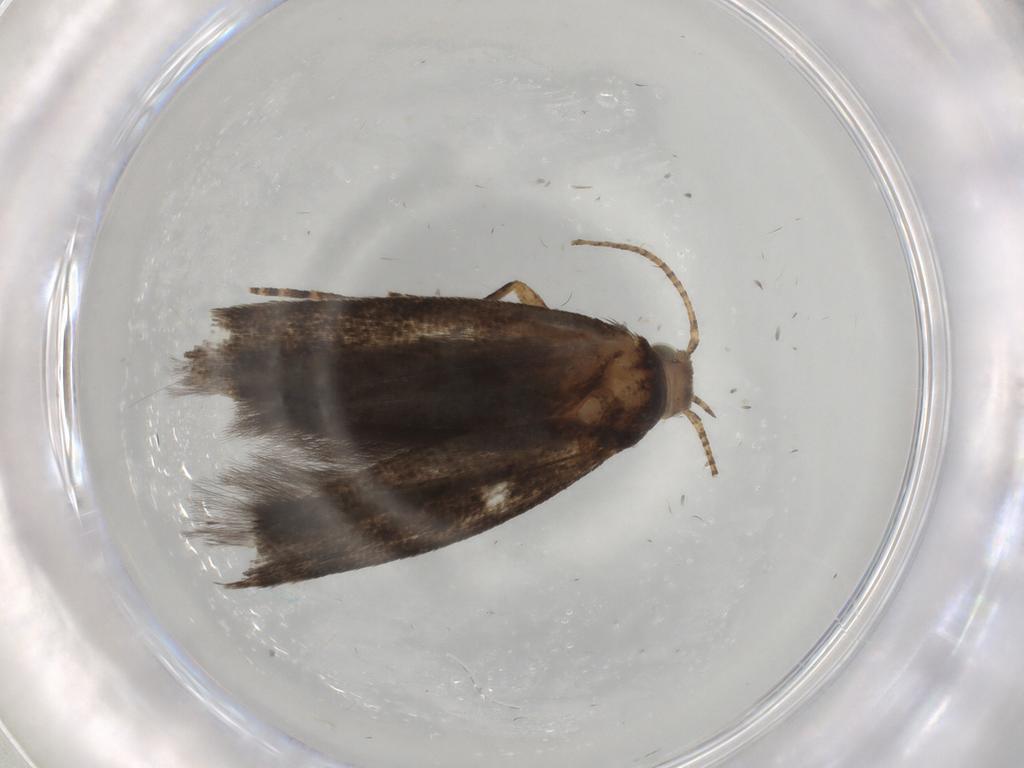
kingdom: Animalia
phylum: Arthropoda
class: Insecta
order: Lepidoptera
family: Gelechiidae
